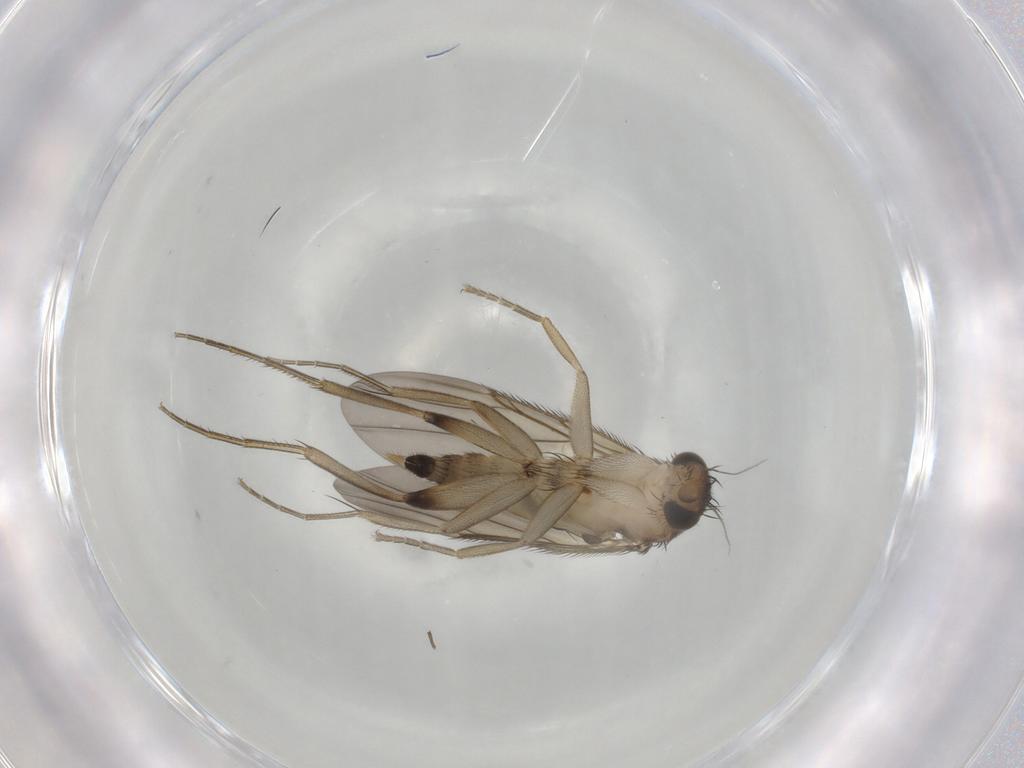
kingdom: Animalia
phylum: Arthropoda
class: Insecta
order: Diptera
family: Phoridae
